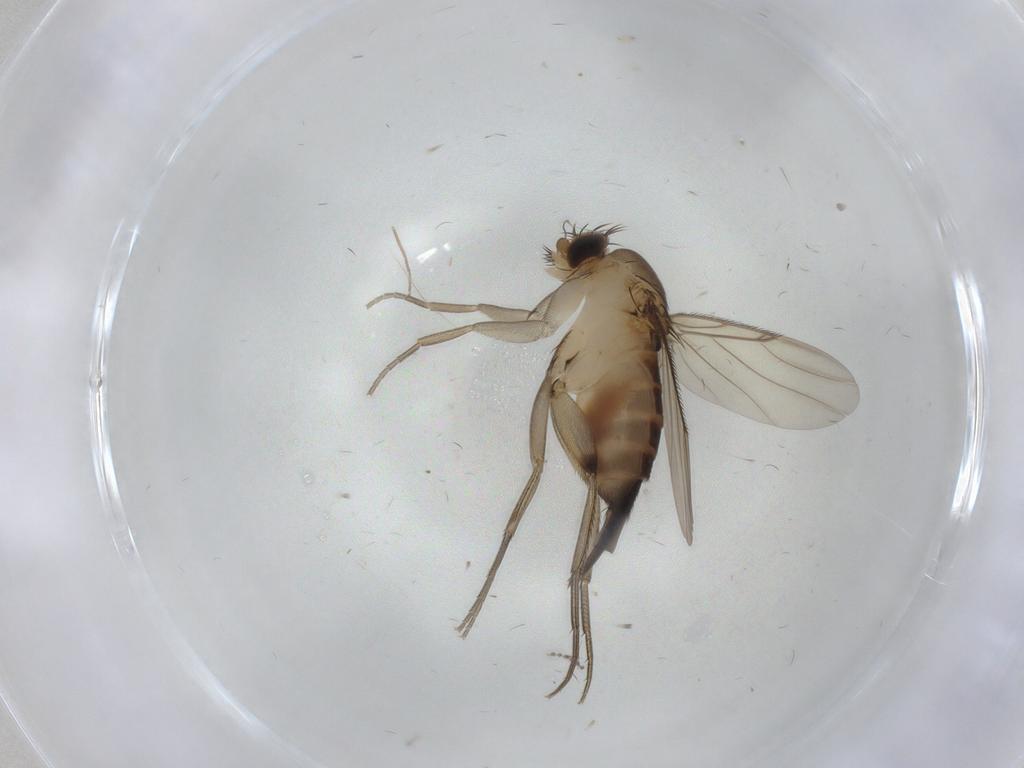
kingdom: Animalia
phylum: Arthropoda
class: Insecta
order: Diptera
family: Phoridae
